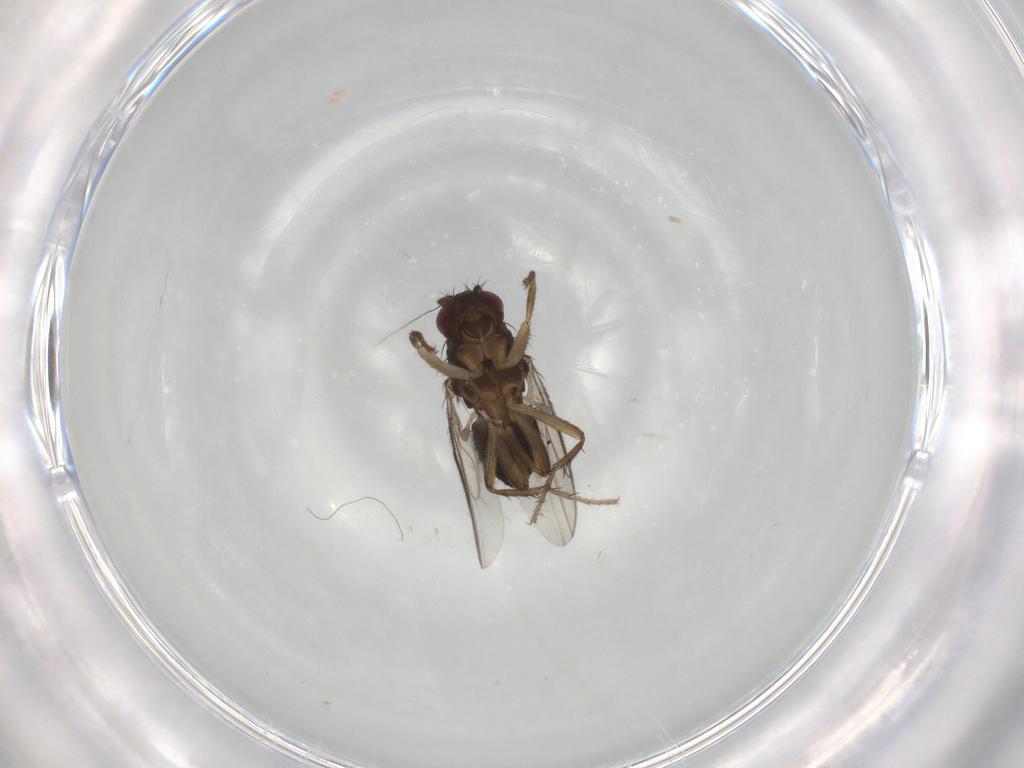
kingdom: Animalia
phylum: Arthropoda
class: Insecta
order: Diptera
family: Sphaeroceridae
